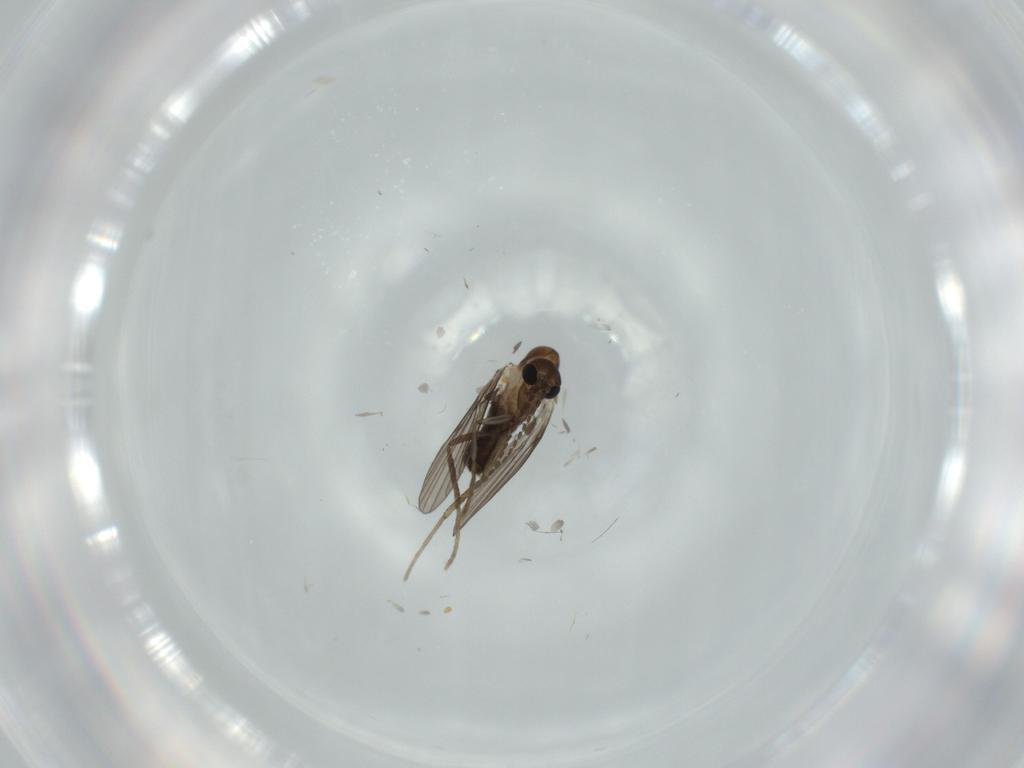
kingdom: Animalia
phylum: Arthropoda
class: Insecta
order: Diptera
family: Psychodidae
